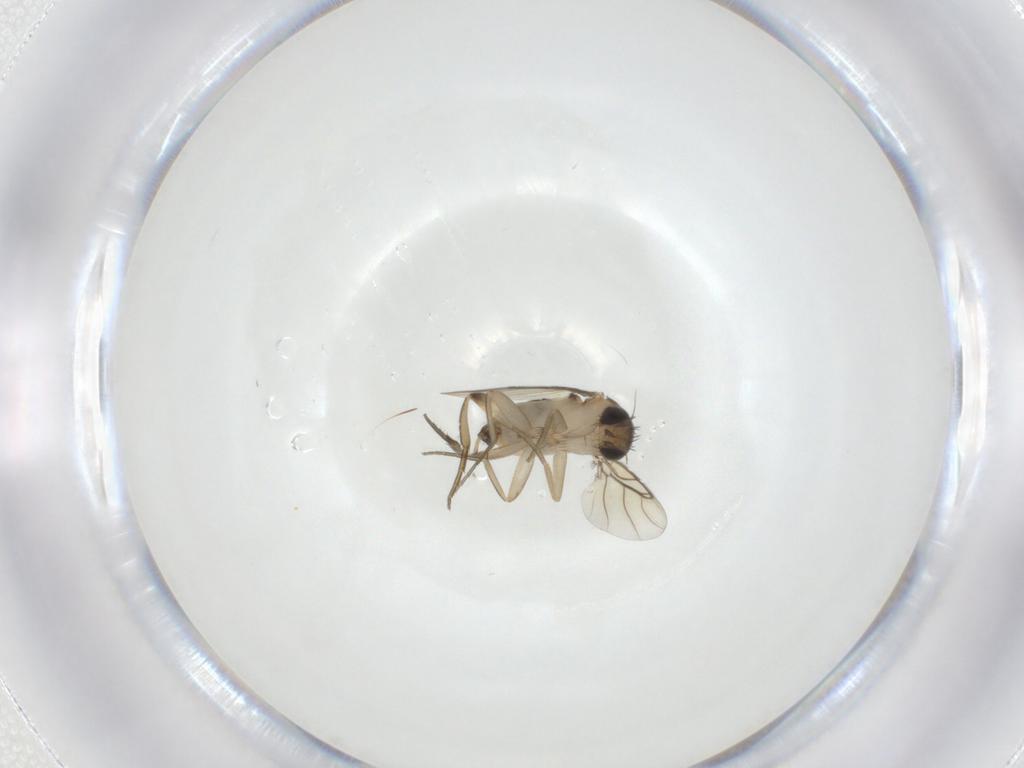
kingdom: Animalia
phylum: Arthropoda
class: Insecta
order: Diptera
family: Phoridae
